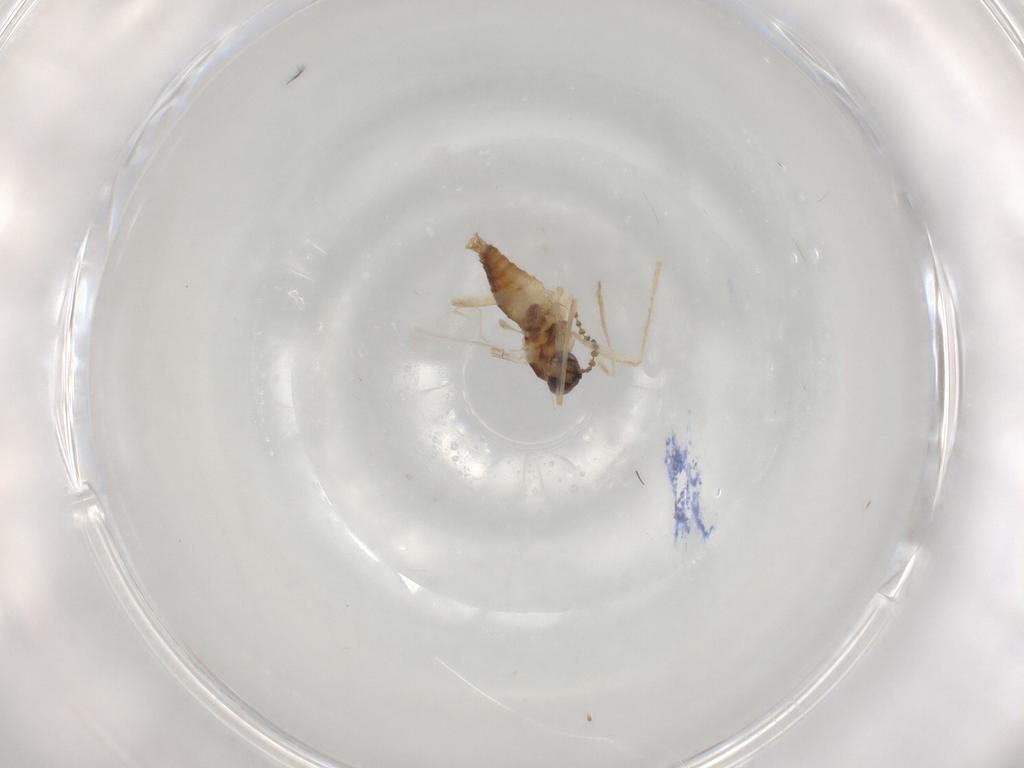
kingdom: Animalia
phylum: Arthropoda
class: Insecta
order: Diptera
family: Cecidomyiidae
